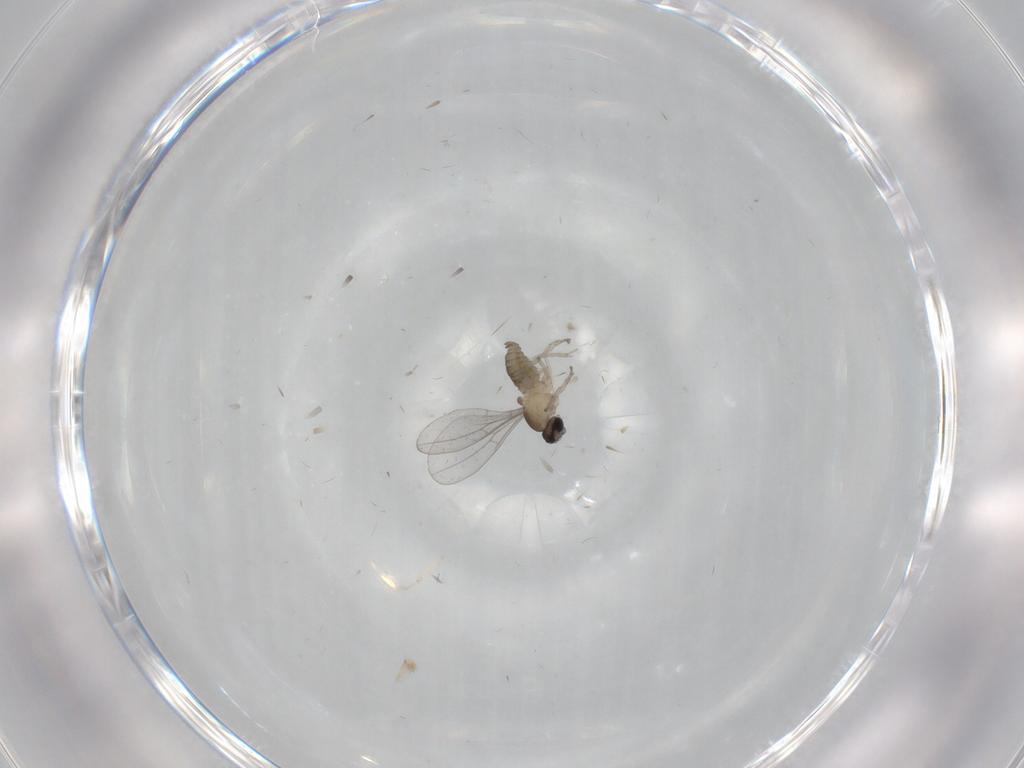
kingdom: Animalia
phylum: Arthropoda
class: Insecta
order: Diptera
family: Cecidomyiidae
